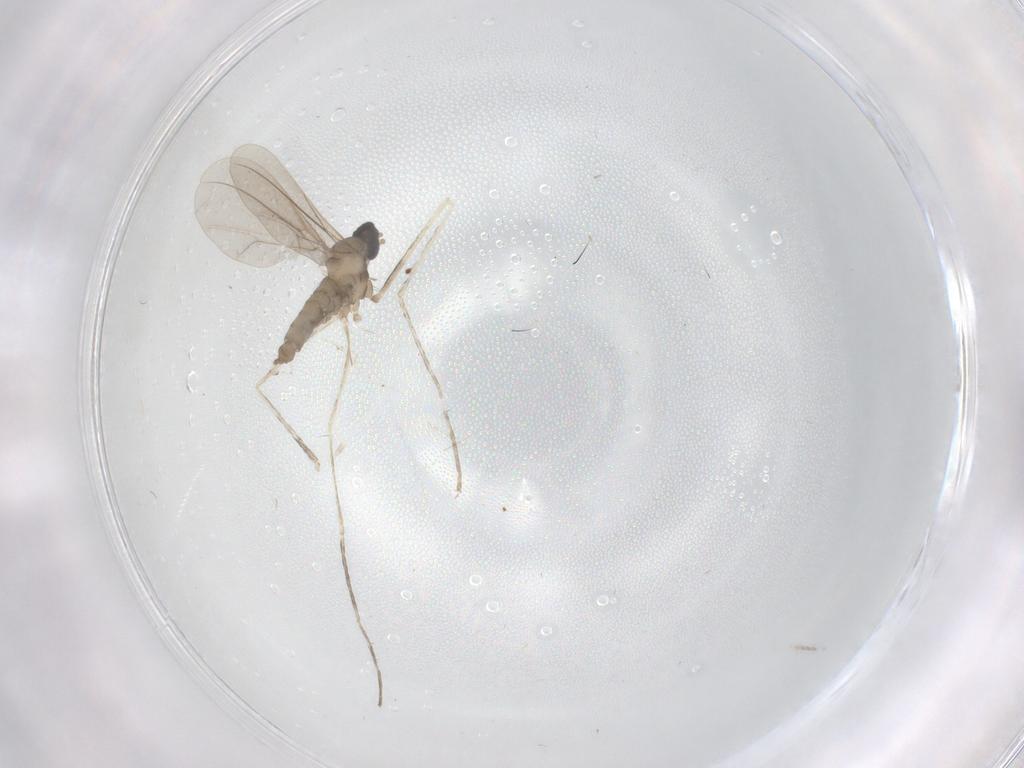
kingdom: Animalia
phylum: Arthropoda
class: Insecta
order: Diptera
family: Cecidomyiidae
